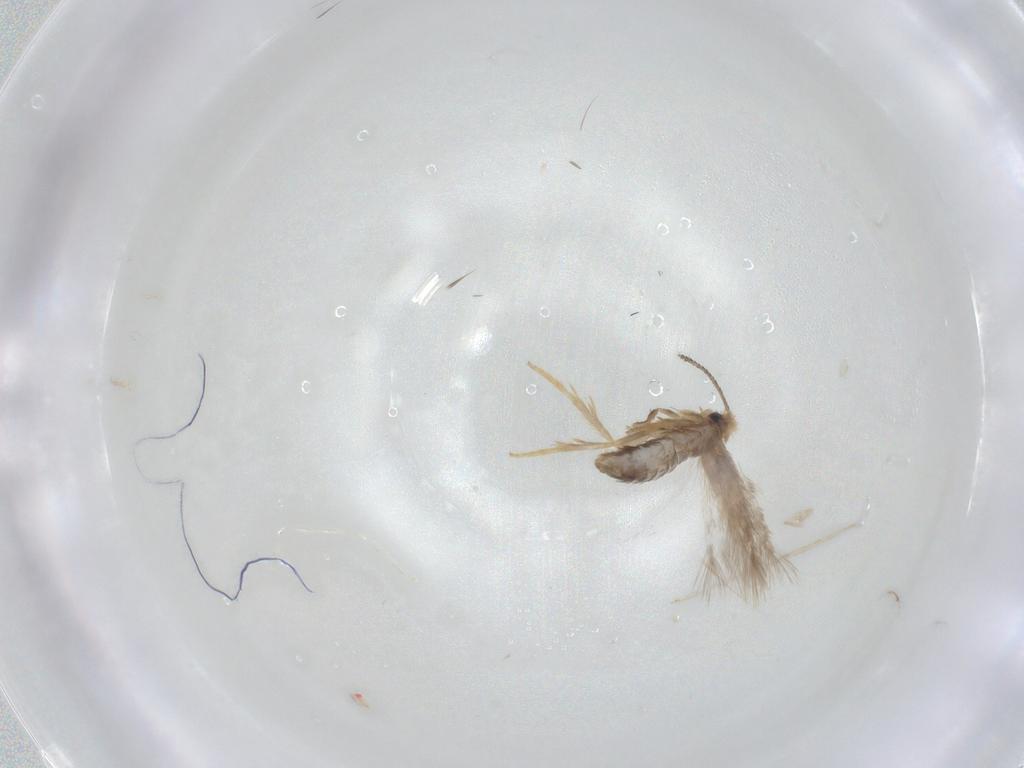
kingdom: Animalia
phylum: Arthropoda
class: Insecta
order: Lepidoptera
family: Nepticulidae
